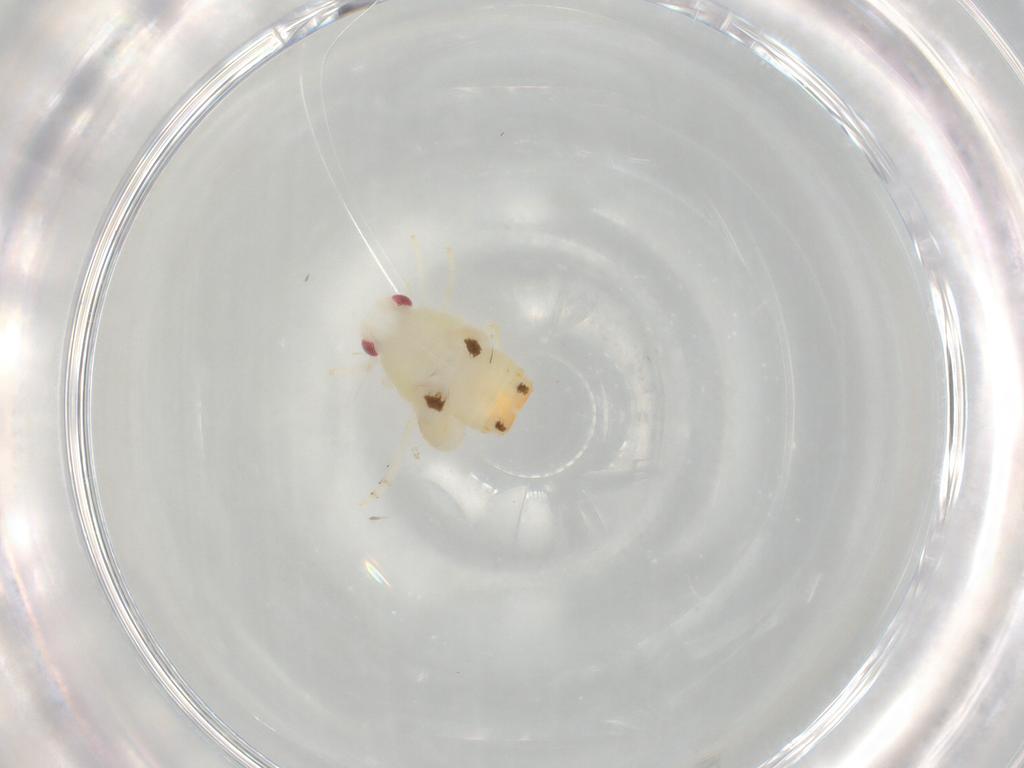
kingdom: Animalia
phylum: Arthropoda
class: Insecta
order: Hemiptera
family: Flatidae
